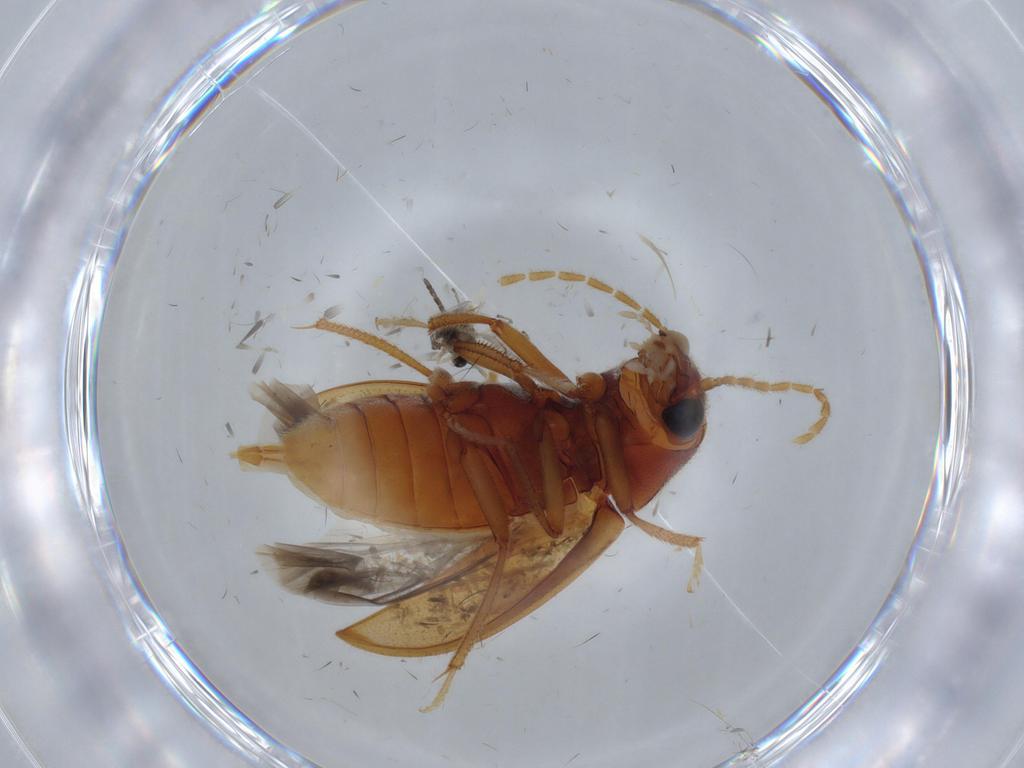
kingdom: Animalia
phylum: Arthropoda
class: Insecta
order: Coleoptera
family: Ptilodactylidae
